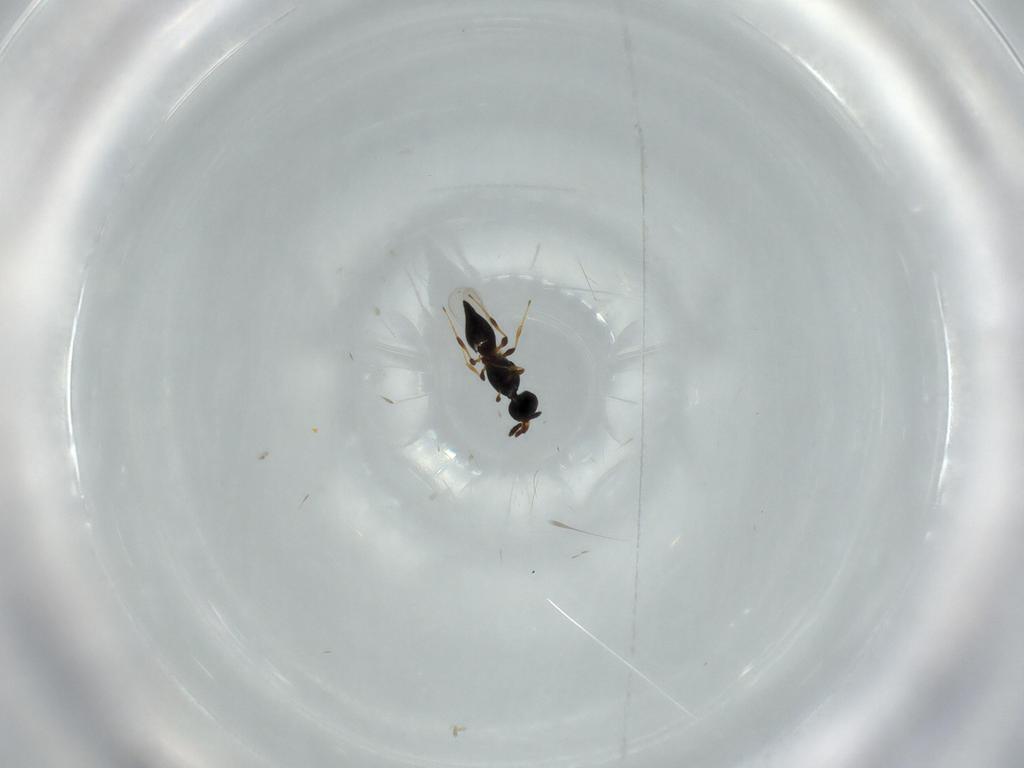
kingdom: Animalia
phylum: Arthropoda
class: Insecta
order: Hymenoptera
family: Platygastridae
